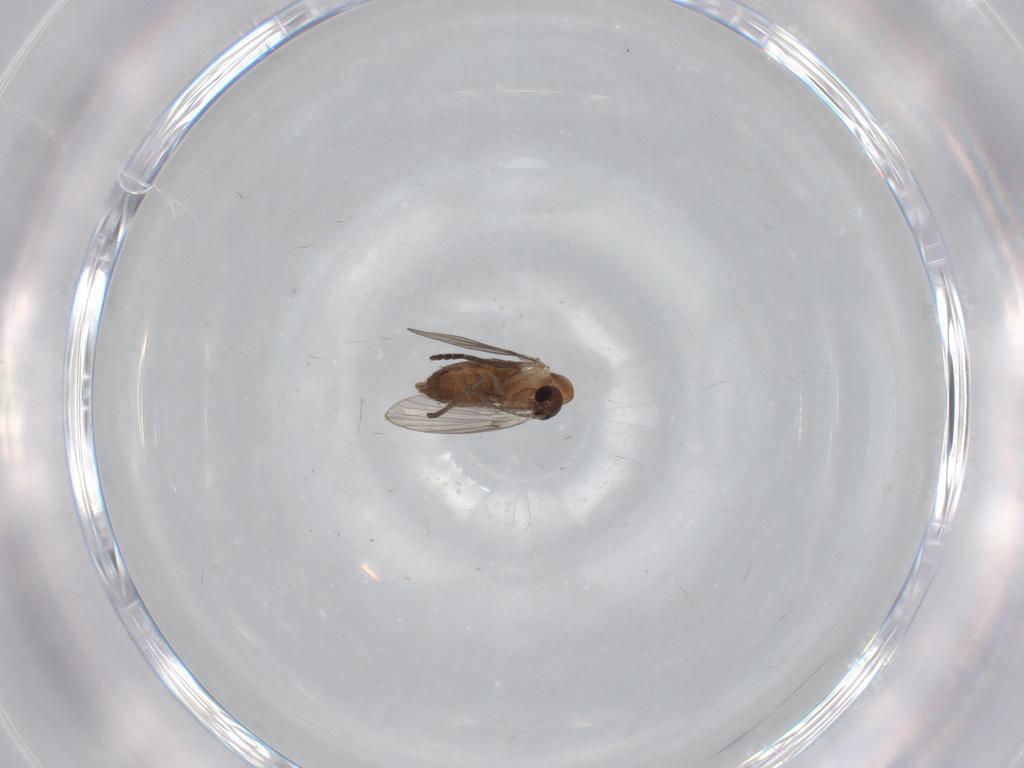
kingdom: Animalia
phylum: Arthropoda
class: Insecta
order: Diptera
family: Psychodidae
